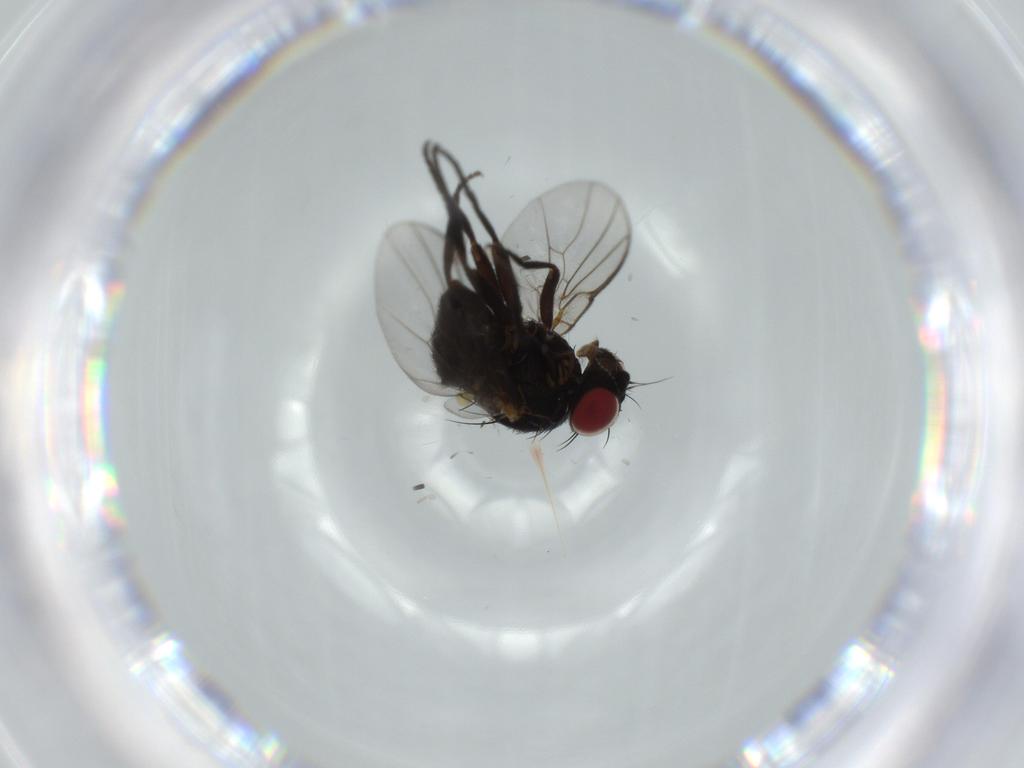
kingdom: Animalia
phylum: Arthropoda
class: Insecta
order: Diptera
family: Agromyzidae
